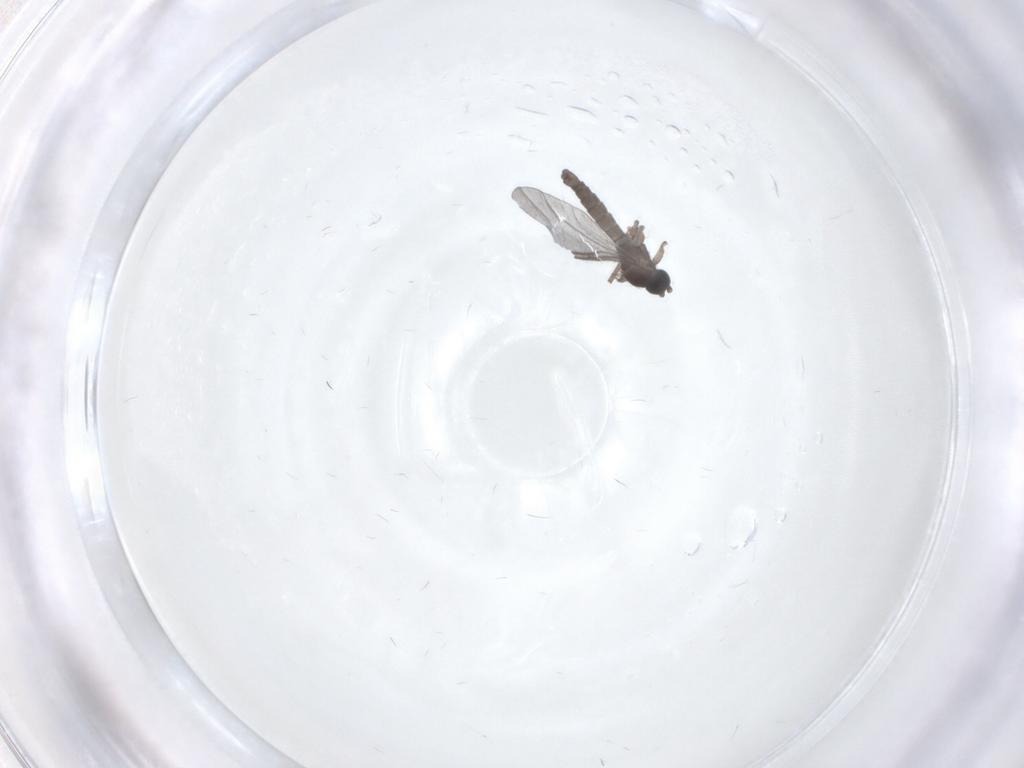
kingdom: Animalia
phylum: Arthropoda
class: Insecta
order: Diptera
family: Sciaridae
